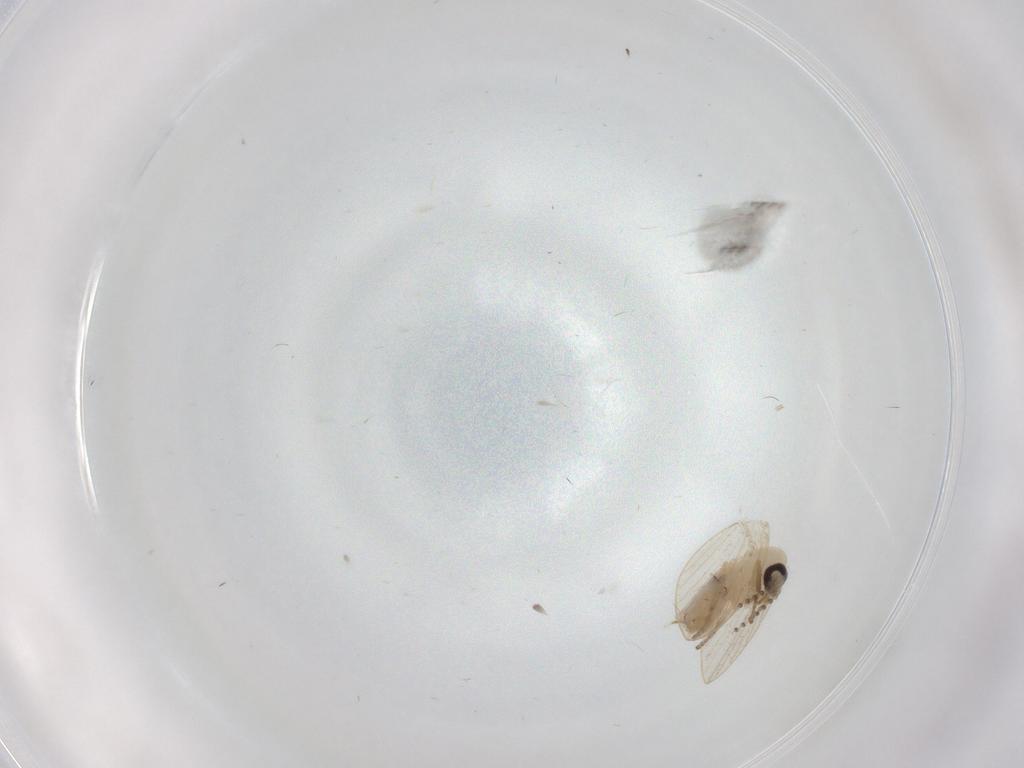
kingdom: Animalia
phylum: Arthropoda
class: Insecta
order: Diptera
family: Psychodidae
